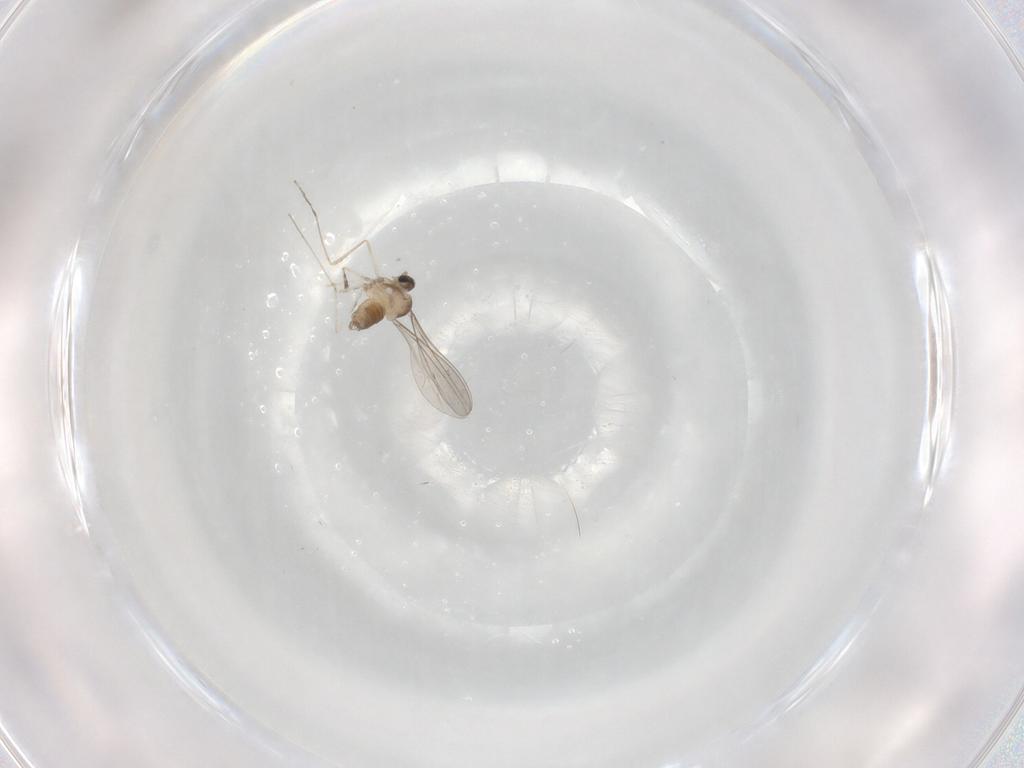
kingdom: Animalia
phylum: Arthropoda
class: Insecta
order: Diptera
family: Cecidomyiidae
